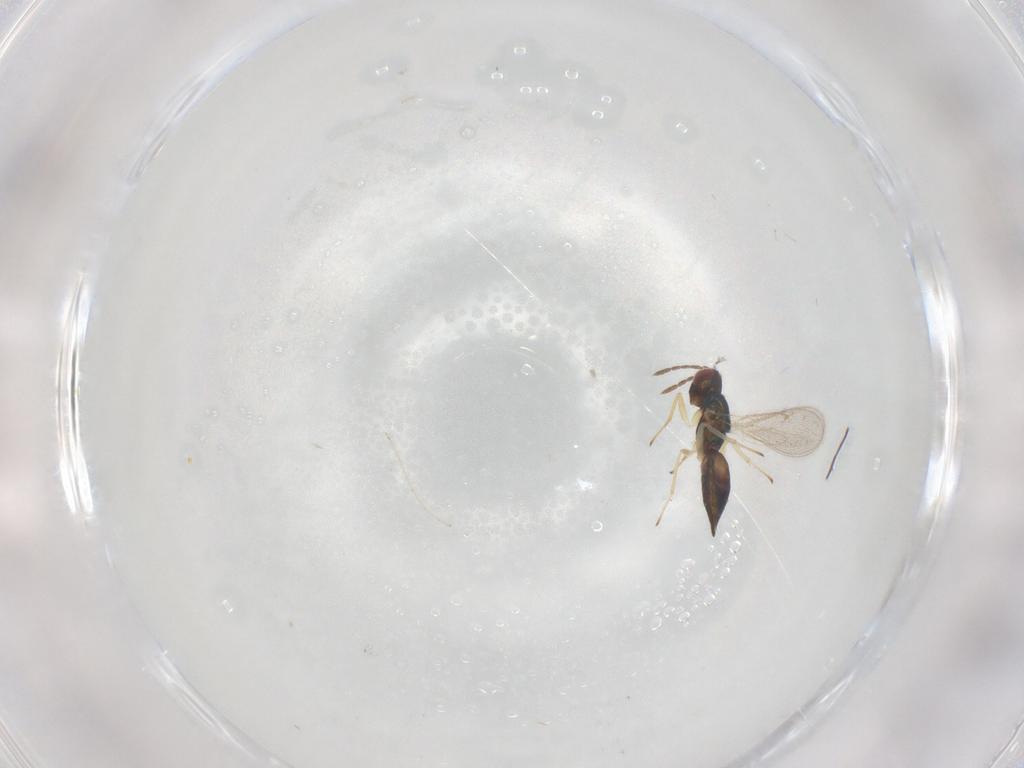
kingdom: Animalia
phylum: Arthropoda
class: Insecta
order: Hymenoptera
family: Eulophidae
